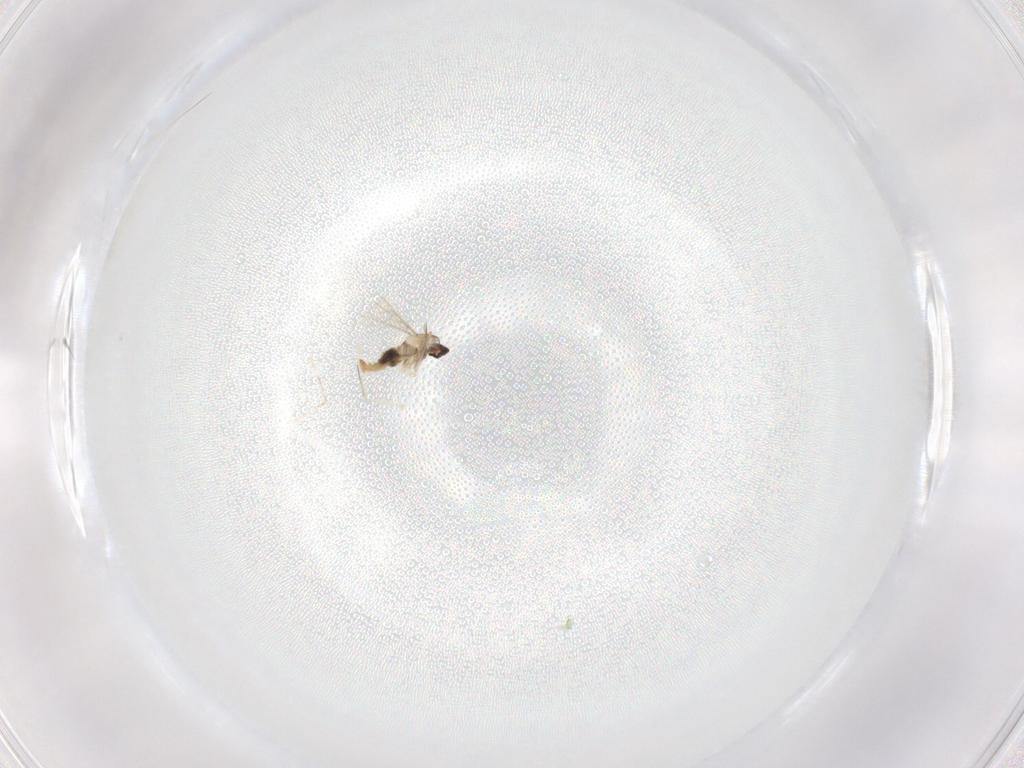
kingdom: Animalia
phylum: Arthropoda
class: Insecta
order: Diptera
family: Cecidomyiidae
